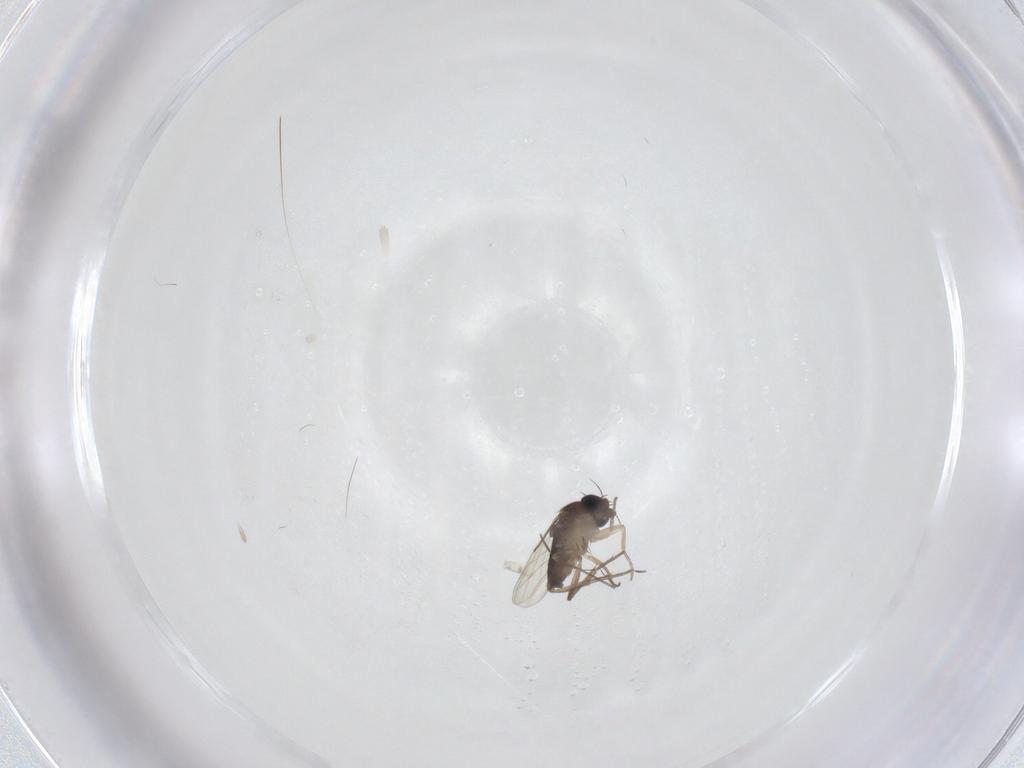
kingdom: Animalia
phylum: Arthropoda
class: Insecta
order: Diptera
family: Phoridae
